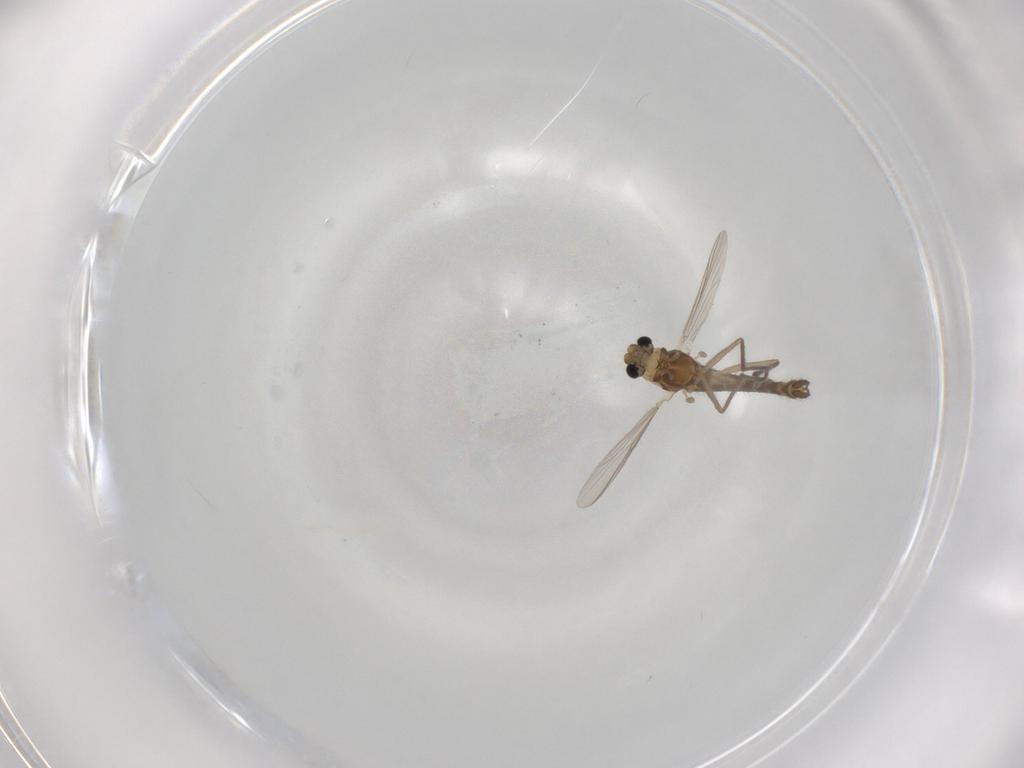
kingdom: Animalia
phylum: Arthropoda
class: Insecta
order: Diptera
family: Chironomidae
